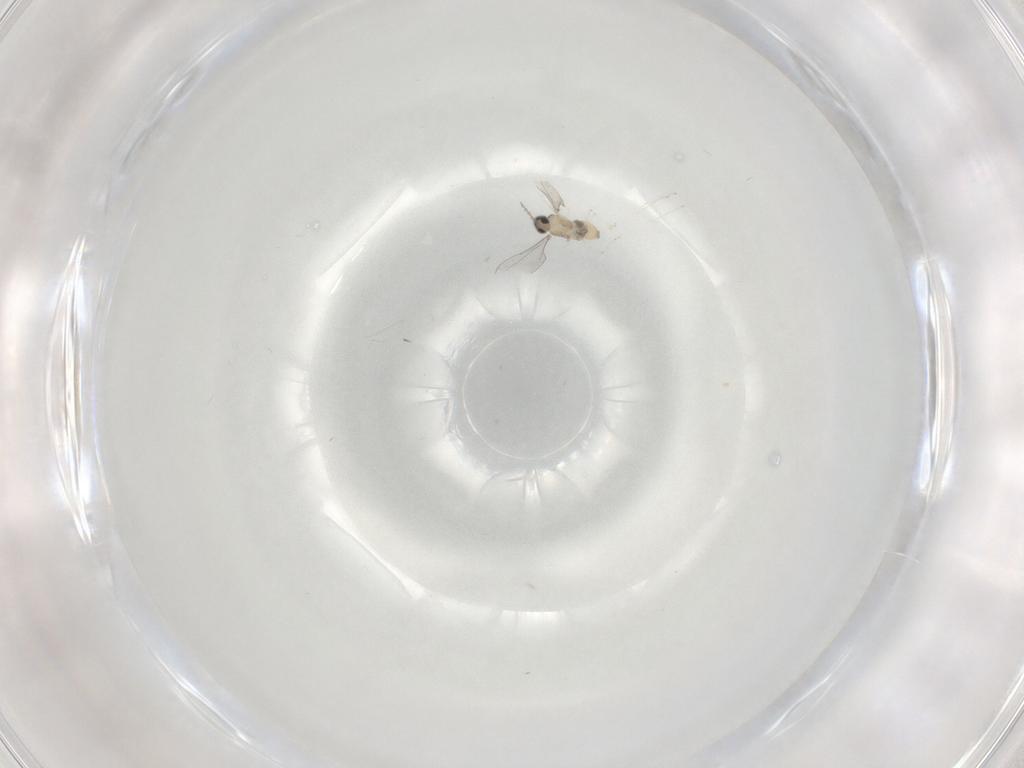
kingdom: Animalia
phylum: Arthropoda
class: Insecta
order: Diptera
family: Cecidomyiidae
